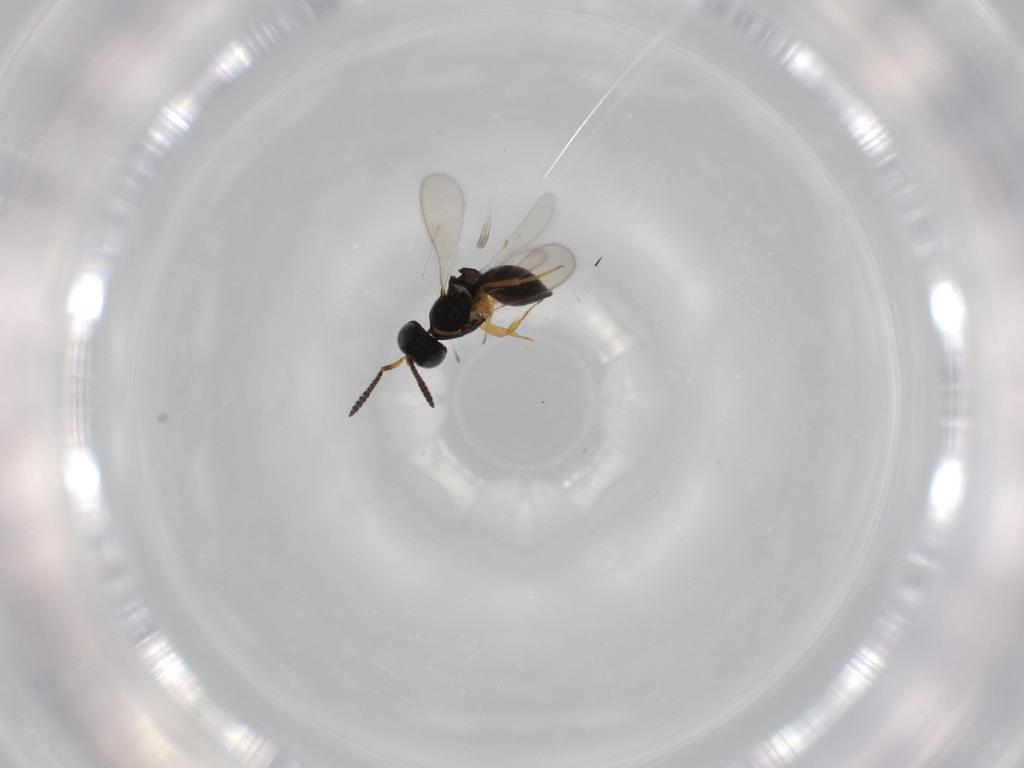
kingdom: Animalia
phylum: Arthropoda
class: Insecta
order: Hymenoptera
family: Scelionidae
